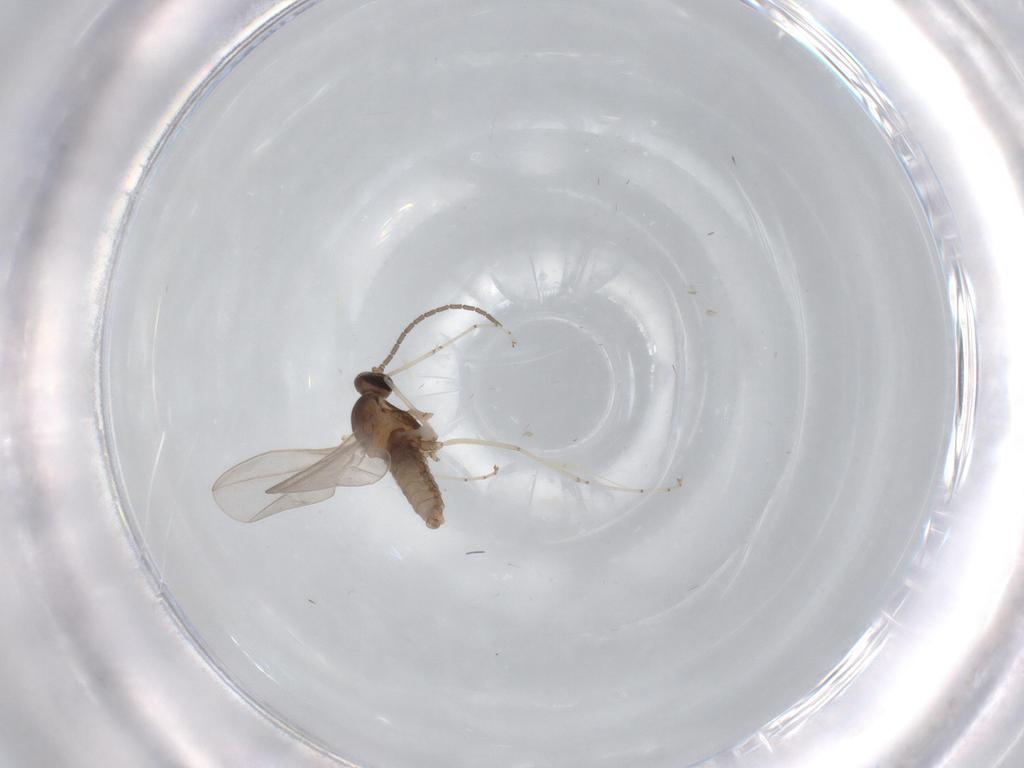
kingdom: Animalia
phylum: Arthropoda
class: Insecta
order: Diptera
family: Cecidomyiidae
